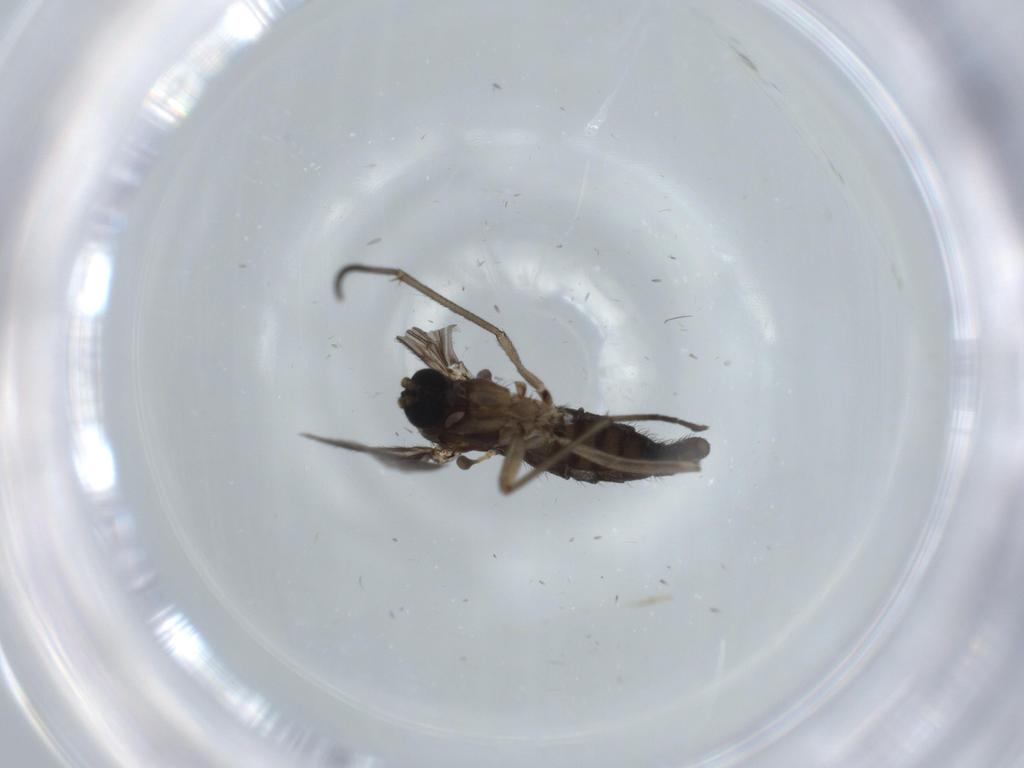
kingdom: Animalia
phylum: Arthropoda
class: Insecta
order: Diptera
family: Sciaridae
